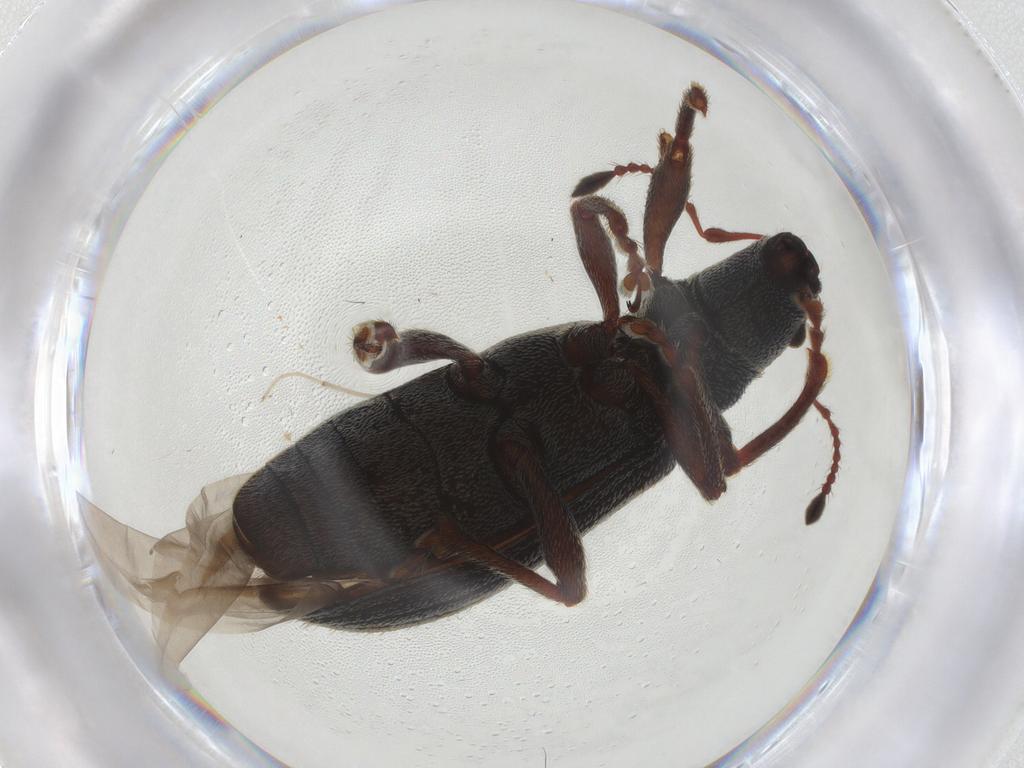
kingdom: Animalia
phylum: Arthropoda
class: Insecta
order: Coleoptera
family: Curculionidae
